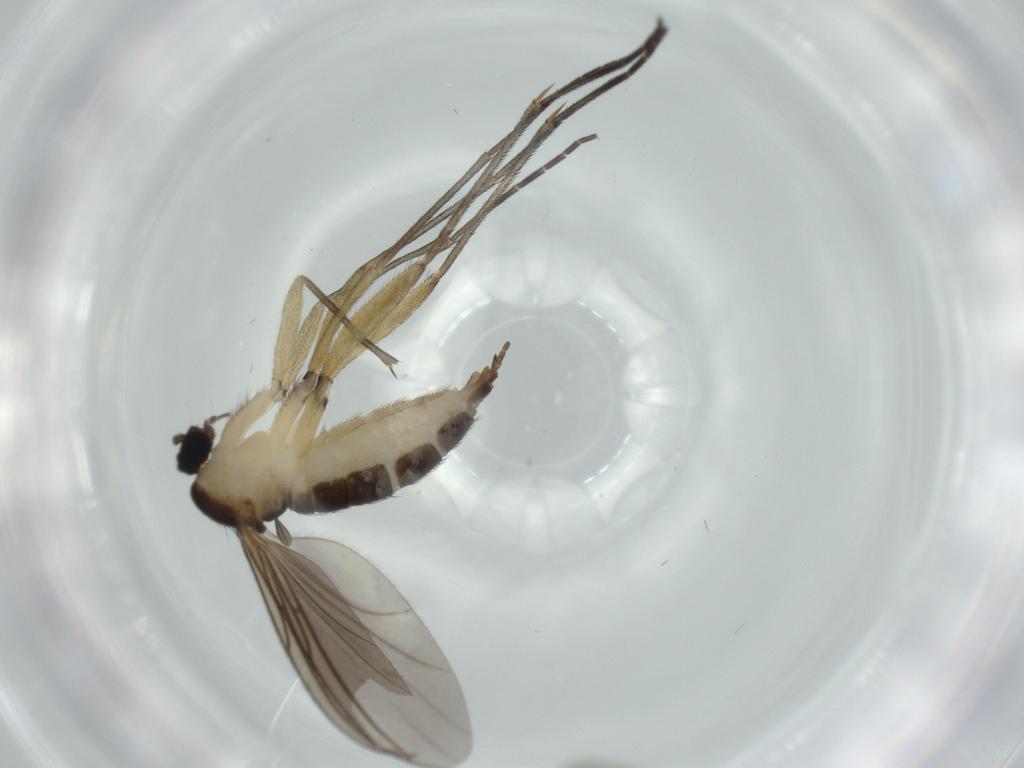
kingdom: Animalia
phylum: Arthropoda
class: Insecta
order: Diptera
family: Sciaridae
